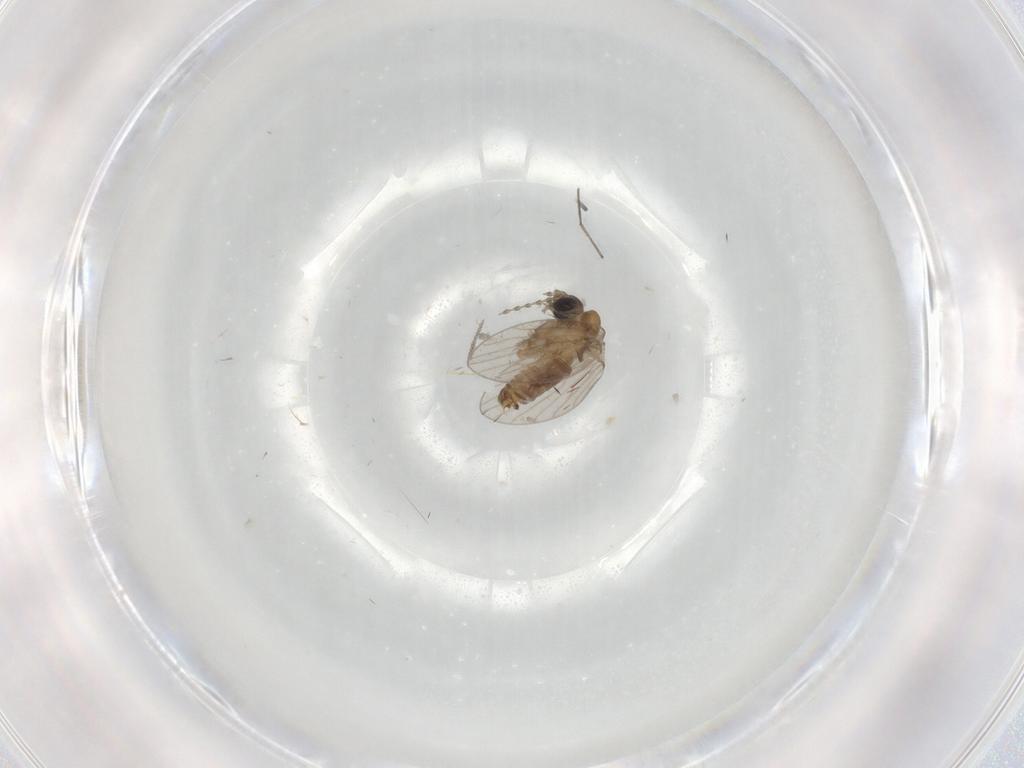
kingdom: Animalia
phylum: Arthropoda
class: Insecta
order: Diptera
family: Cecidomyiidae
